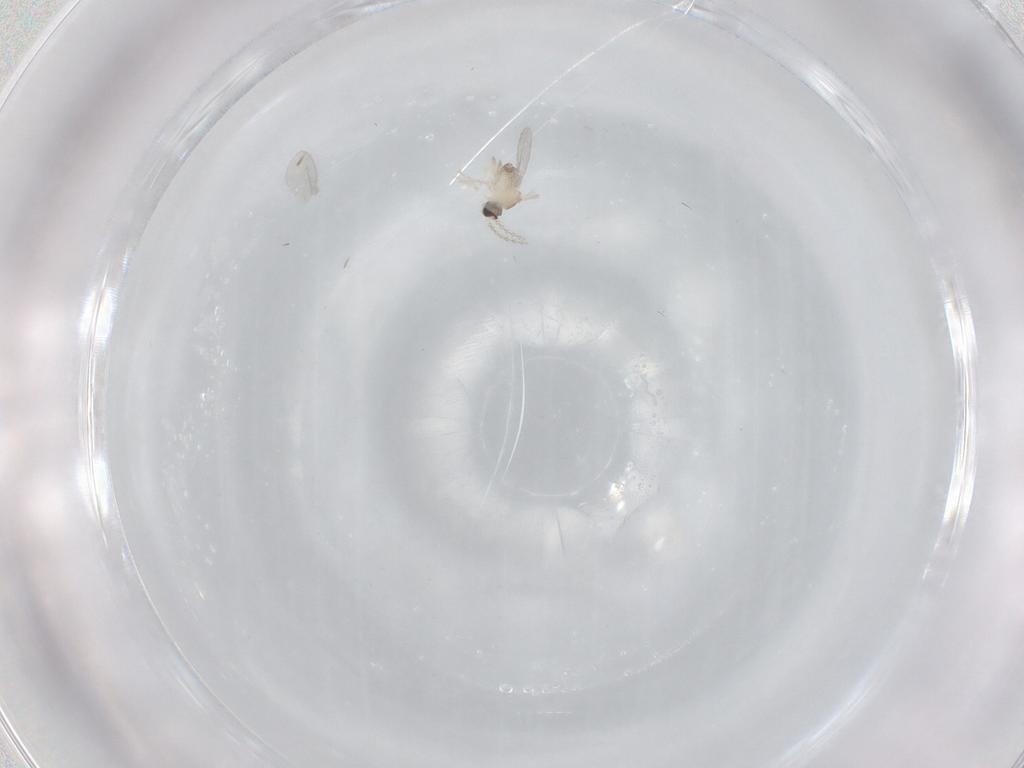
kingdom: Animalia
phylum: Arthropoda
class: Insecta
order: Diptera
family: Cecidomyiidae
